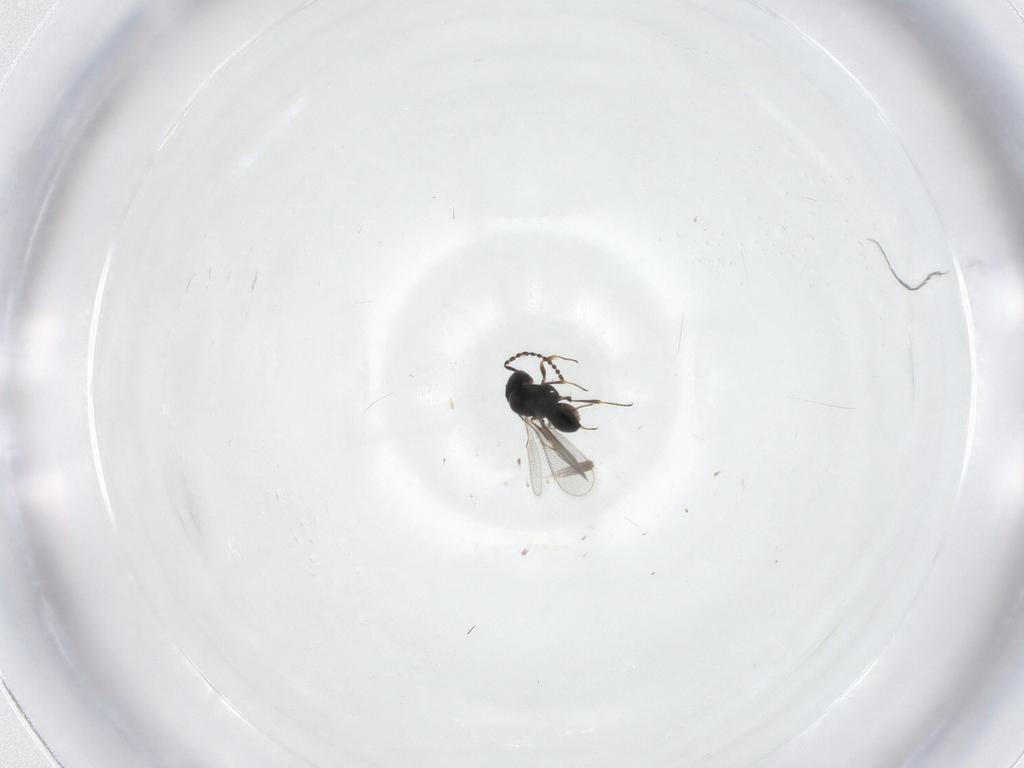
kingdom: Animalia
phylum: Arthropoda
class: Insecta
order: Hymenoptera
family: Scelionidae
